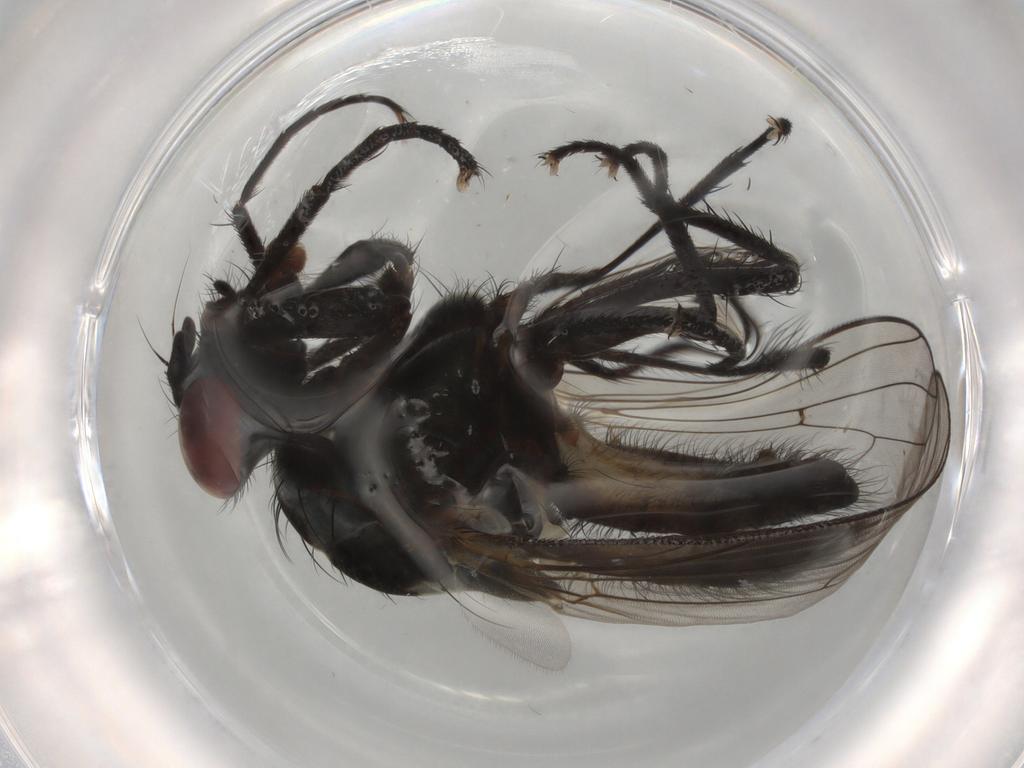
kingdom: Animalia
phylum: Arthropoda
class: Insecta
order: Diptera
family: Anthomyiidae
